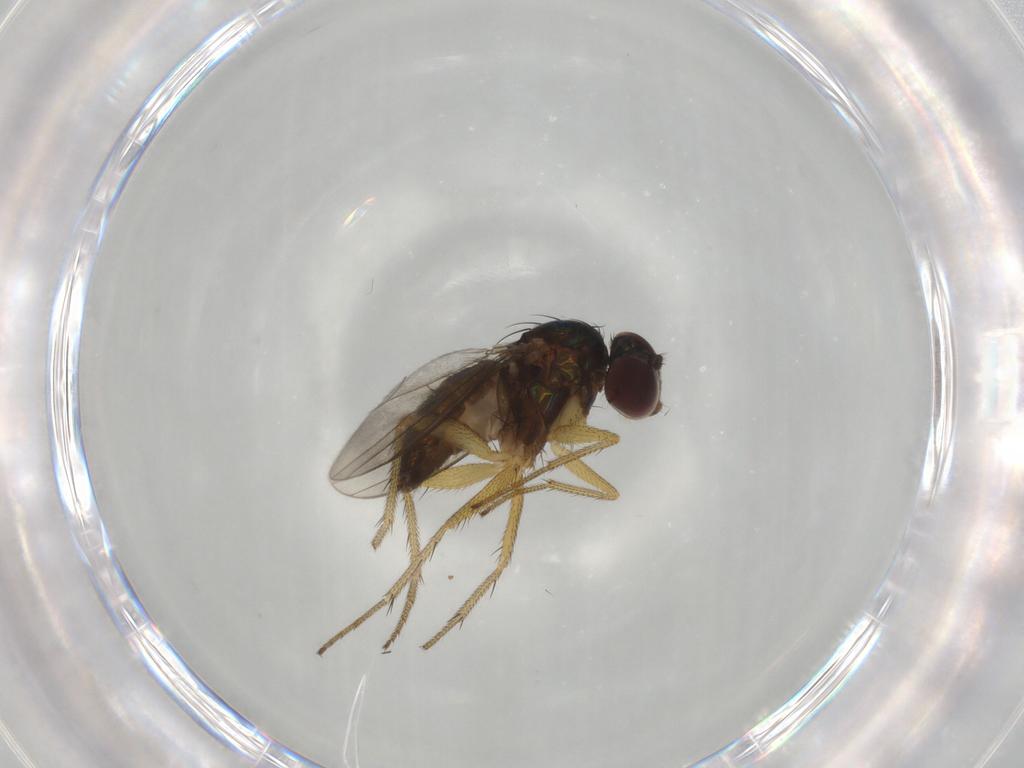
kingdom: Animalia
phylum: Arthropoda
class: Insecta
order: Diptera
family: Dolichopodidae
